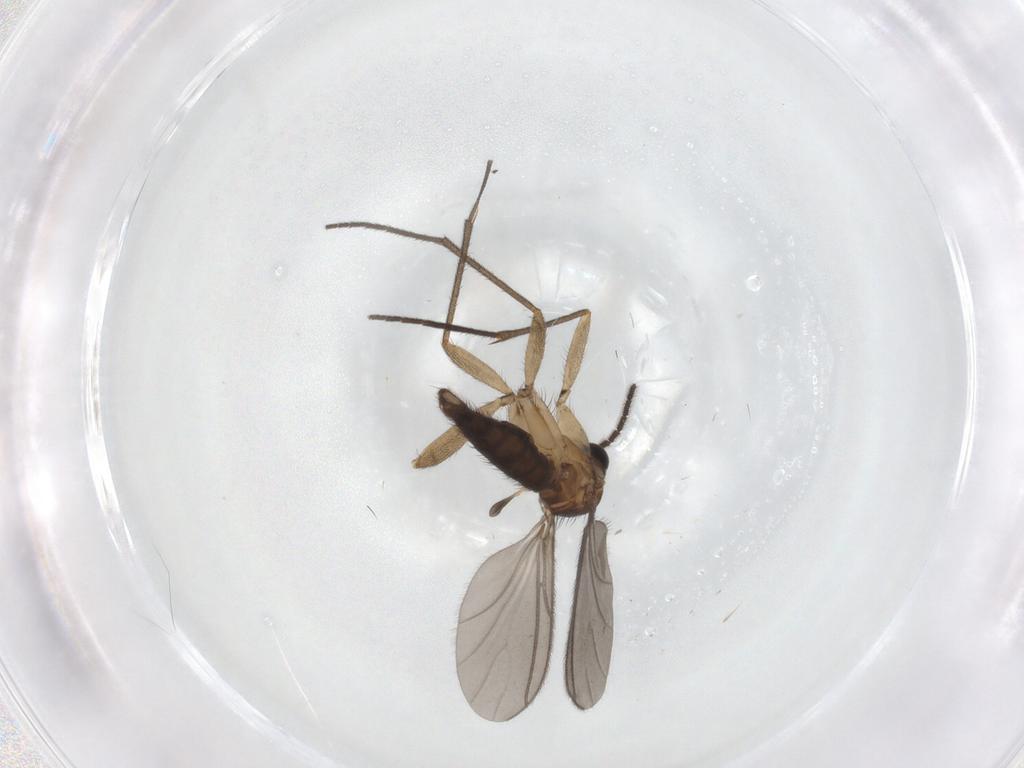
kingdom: Animalia
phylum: Arthropoda
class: Insecta
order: Diptera
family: Sciaridae
